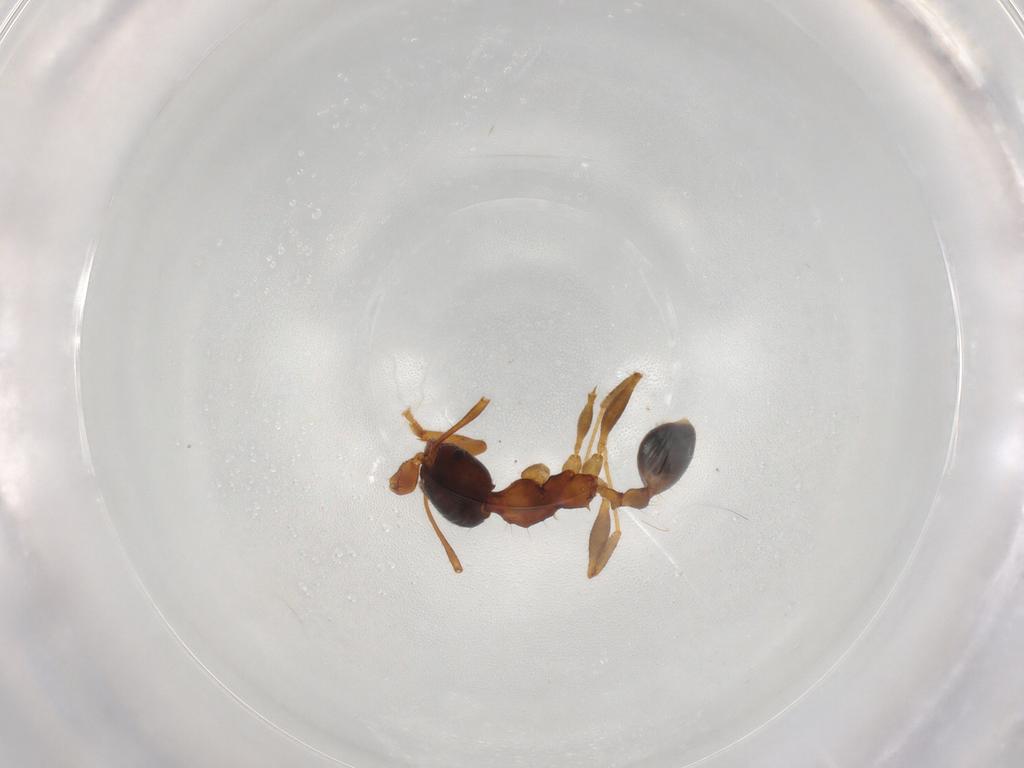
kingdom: Animalia
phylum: Arthropoda
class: Insecta
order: Hymenoptera
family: Formicidae
